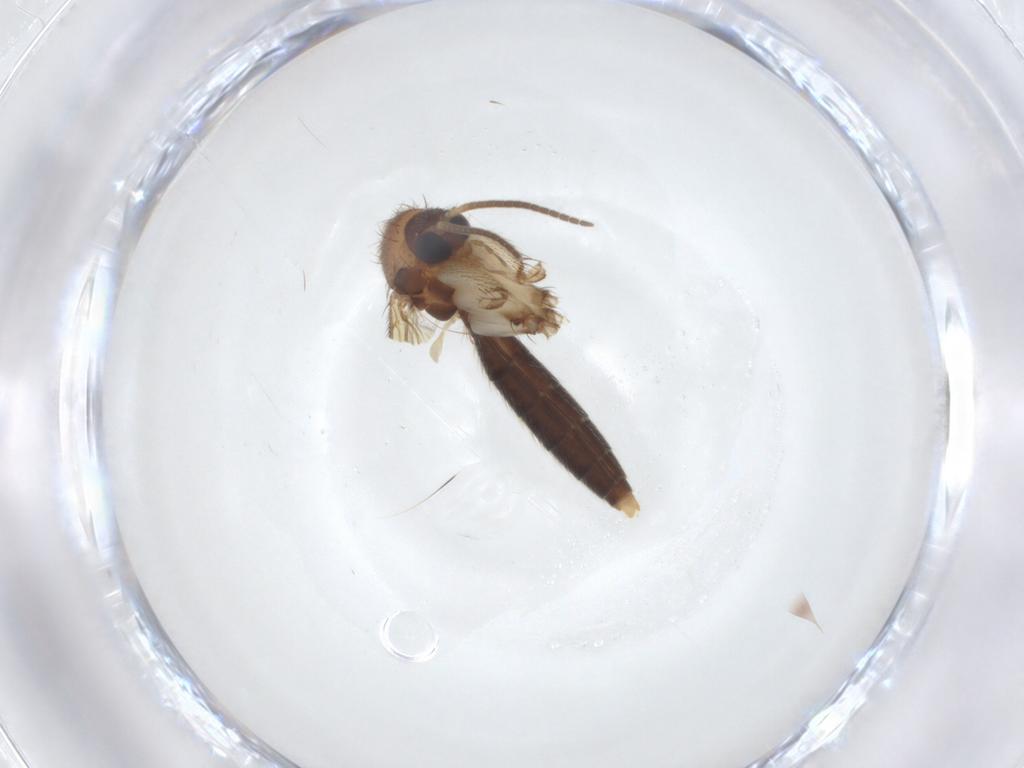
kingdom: Animalia
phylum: Arthropoda
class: Insecta
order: Diptera
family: Mycetophilidae
